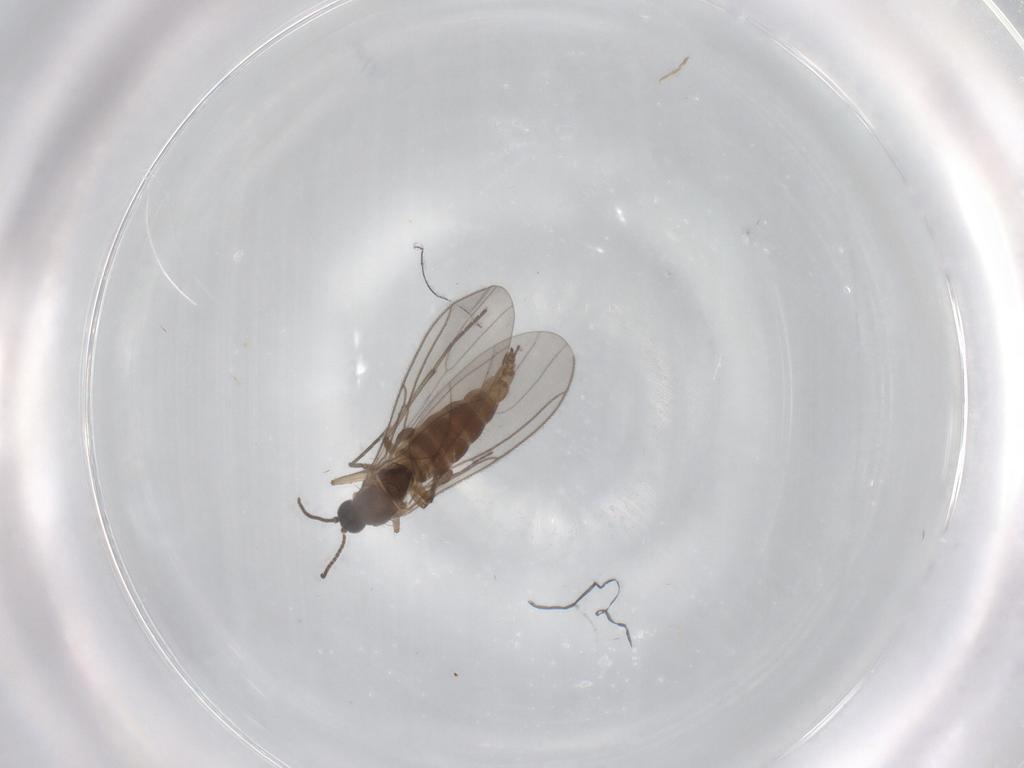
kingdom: Animalia
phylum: Arthropoda
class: Insecta
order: Diptera
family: Sciaridae
